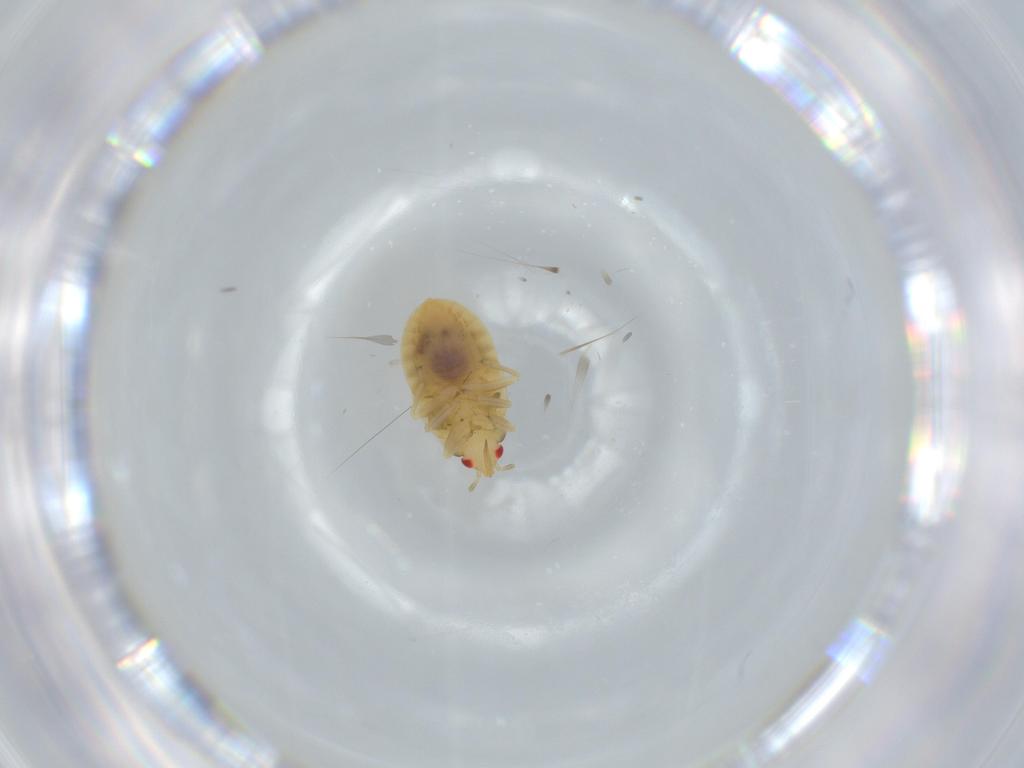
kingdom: Animalia
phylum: Arthropoda
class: Insecta
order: Hemiptera
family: Anthocoridae
